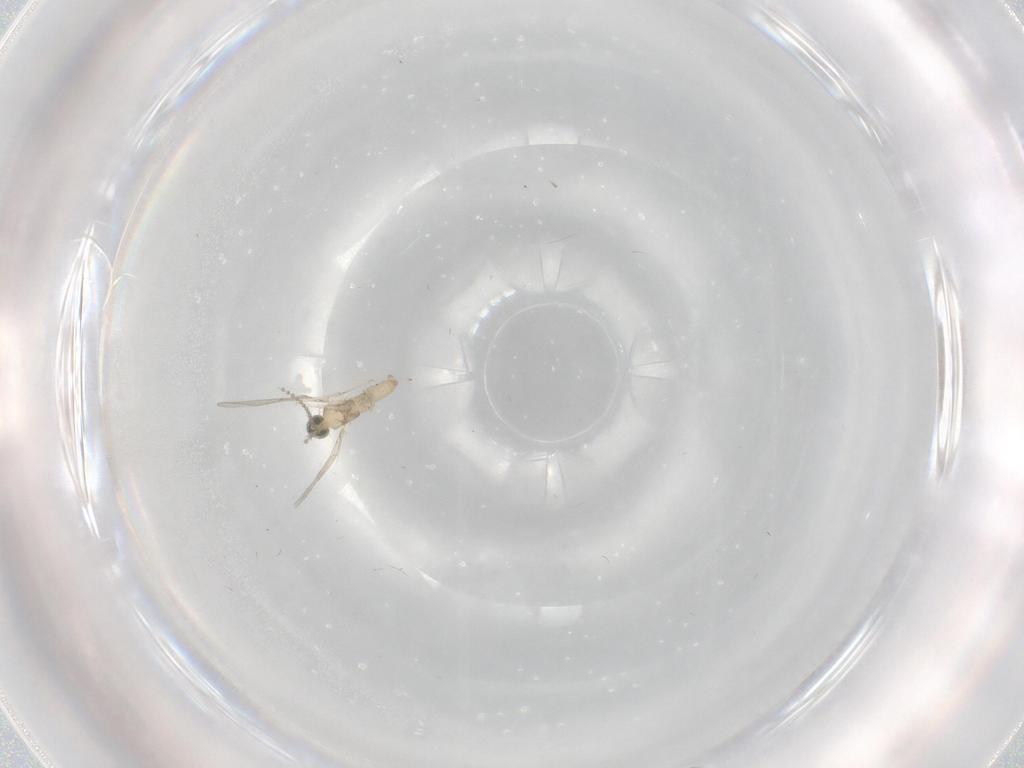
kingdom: Animalia
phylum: Arthropoda
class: Insecta
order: Diptera
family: Cecidomyiidae
